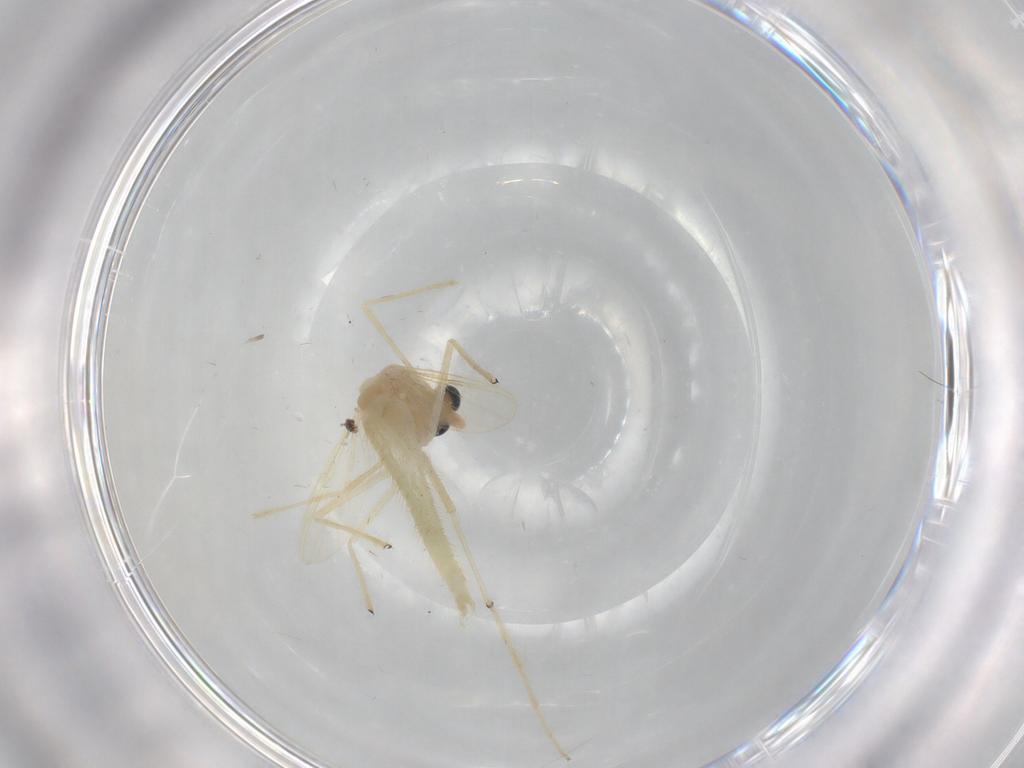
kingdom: Animalia
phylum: Arthropoda
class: Insecta
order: Diptera
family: Chironomidae
